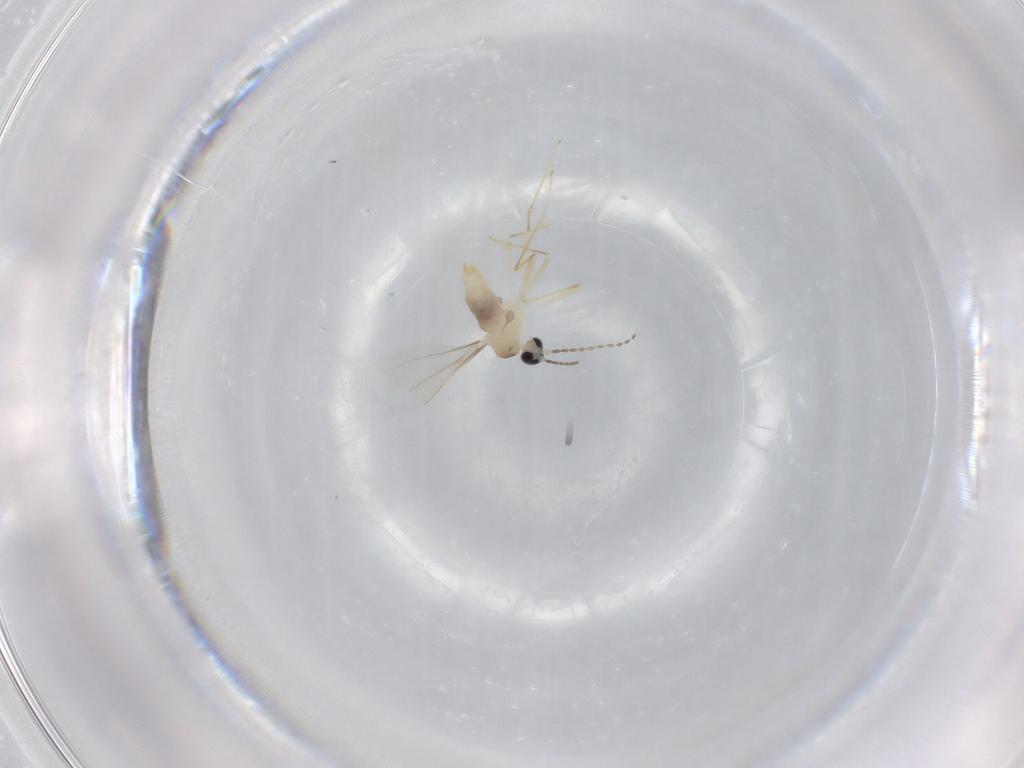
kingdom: Animalia
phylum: Arthropoda
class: Insecta
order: Diptera
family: Cecidomyiidae
